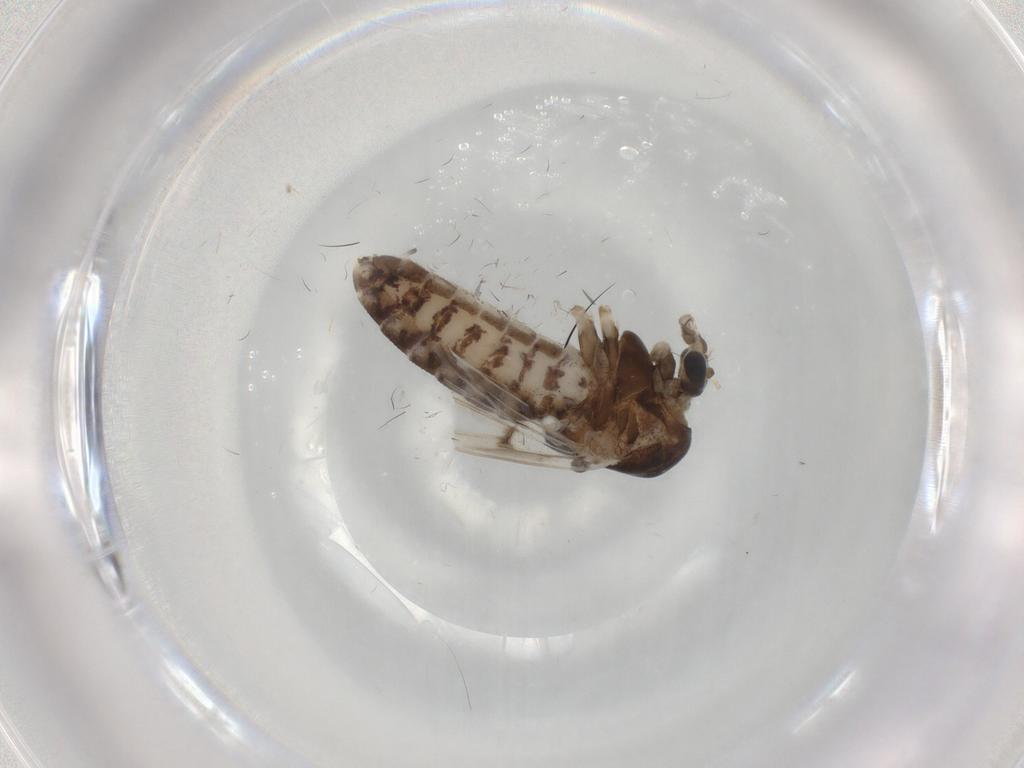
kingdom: Animalia
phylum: Arthropoda
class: Insecta
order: Diptera
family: Chironomidae
